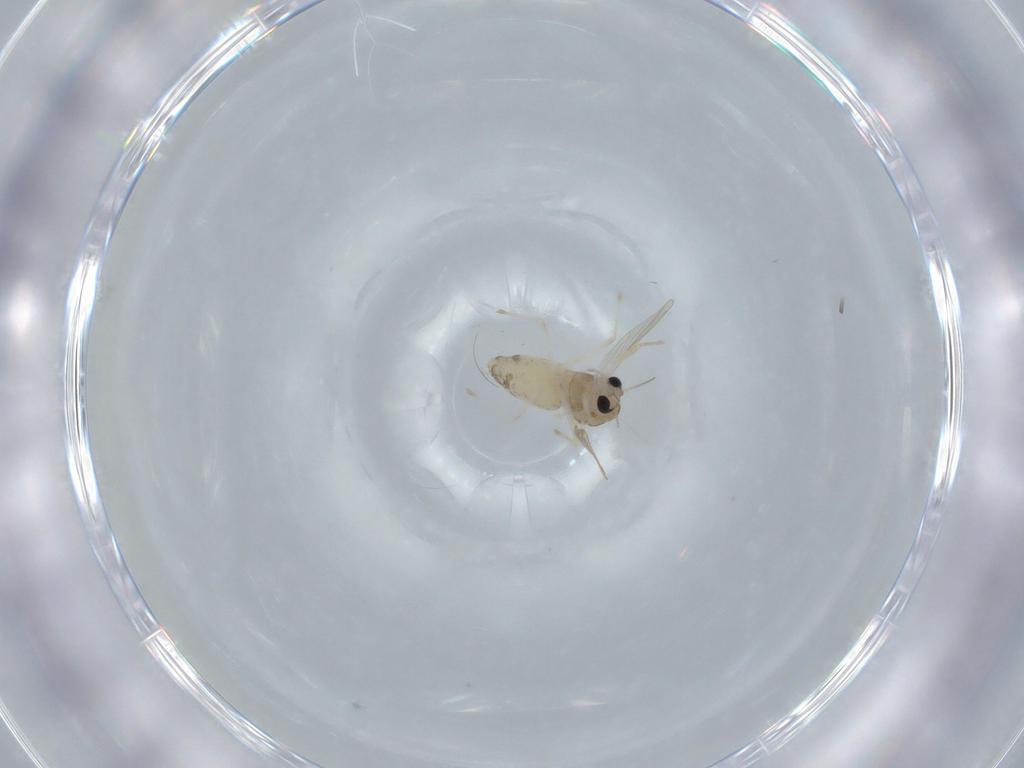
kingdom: Animalia
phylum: Arthropoda
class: Insecta
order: Diptera
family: Chironomidae
